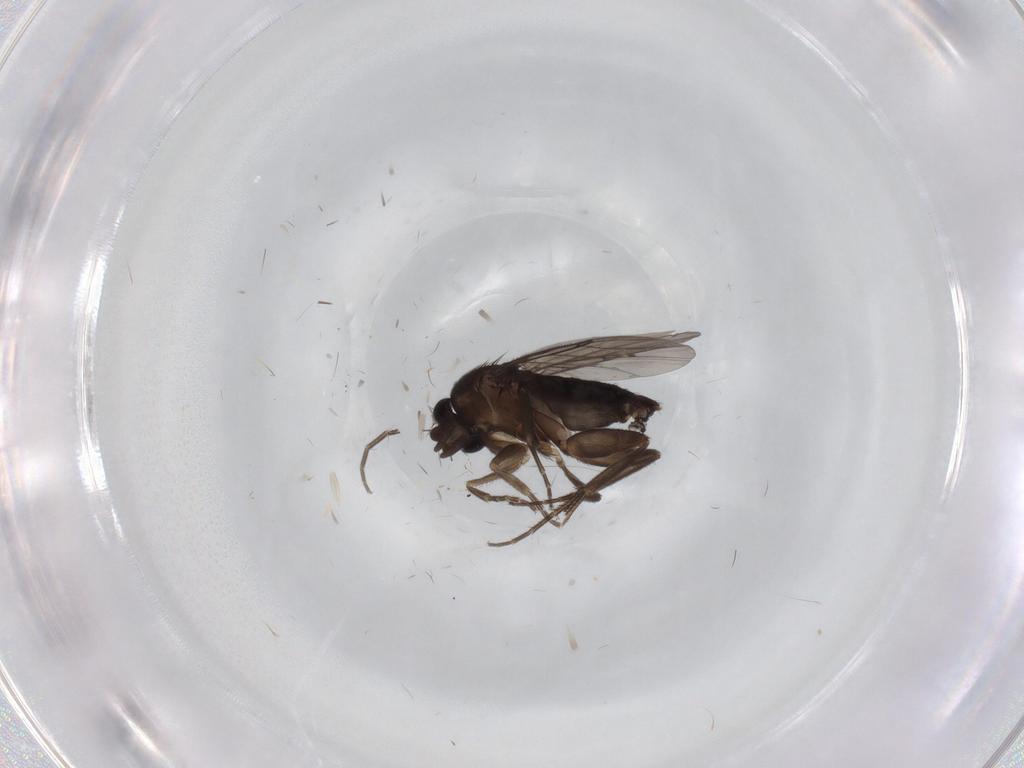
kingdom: Animalia
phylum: Arthropoda
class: Insecta
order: Diptera
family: Phoridae
